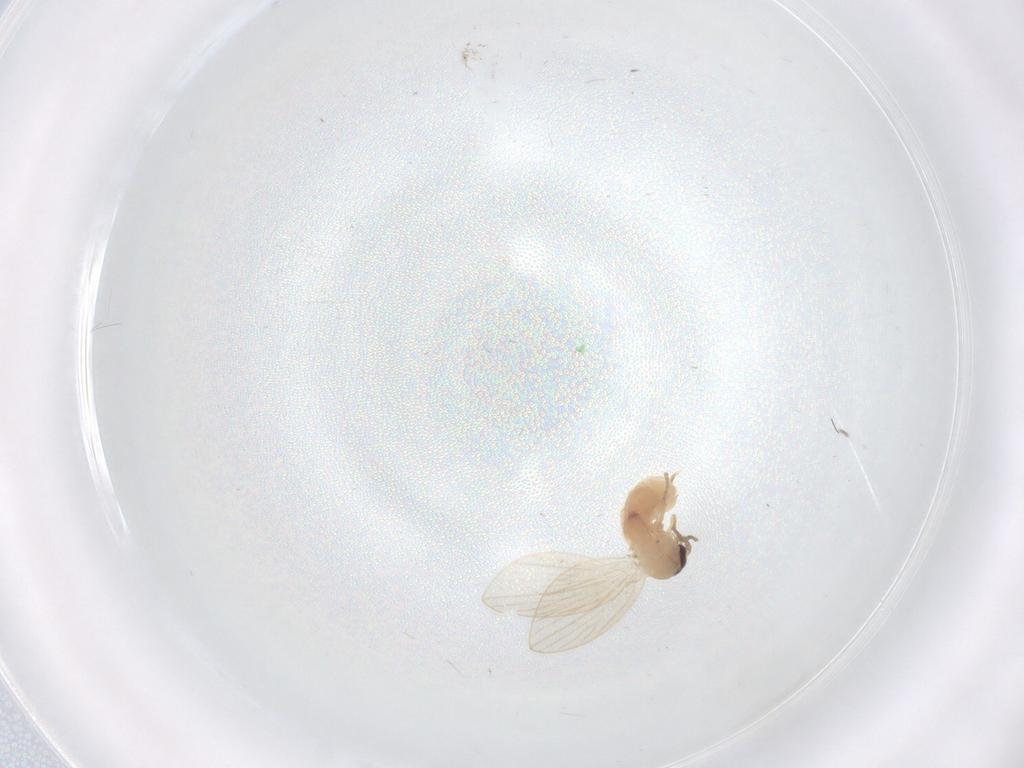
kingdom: Animalia
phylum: Arthropoda
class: Insecta
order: Diptera
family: Psychodidae
